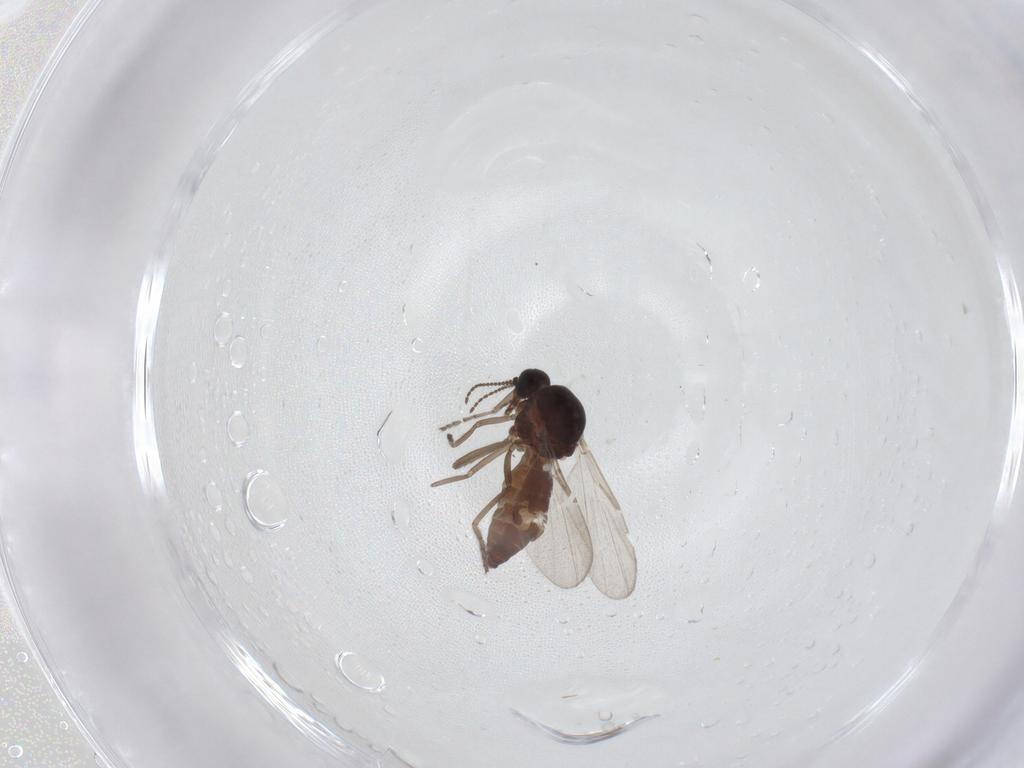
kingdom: Animalia
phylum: Arthropoda
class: Insecta
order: Diptera
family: Ceratopogonidae
